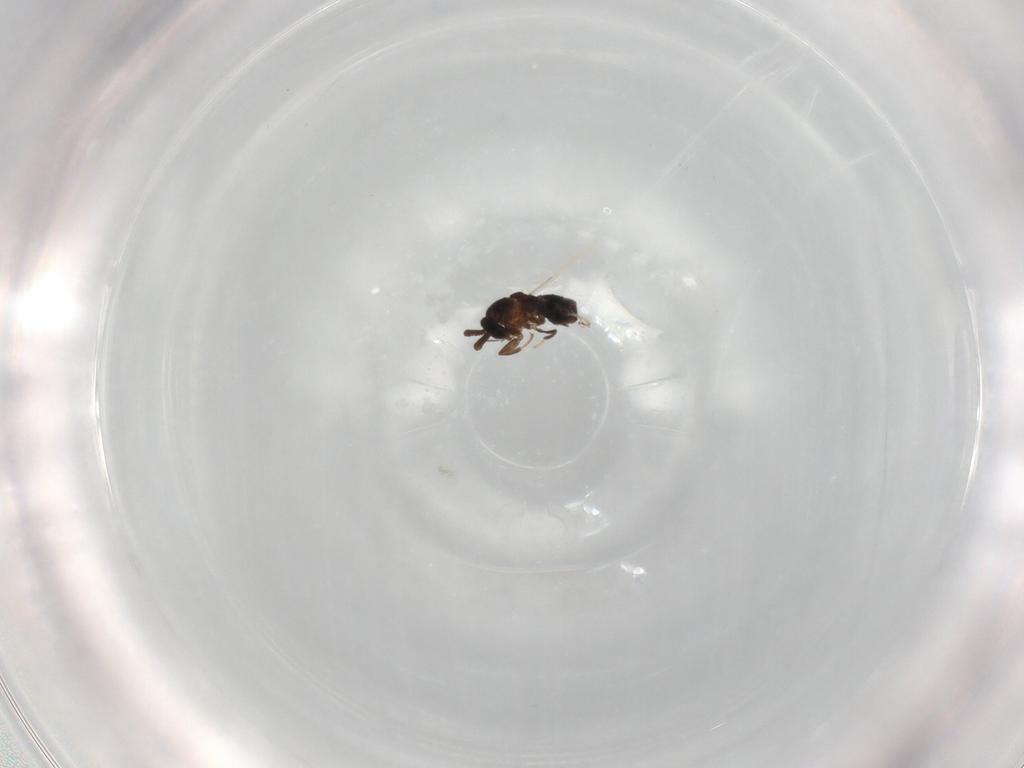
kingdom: Animalia
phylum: Arthropoda
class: Insecta
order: Diptera
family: Scatopsidae
